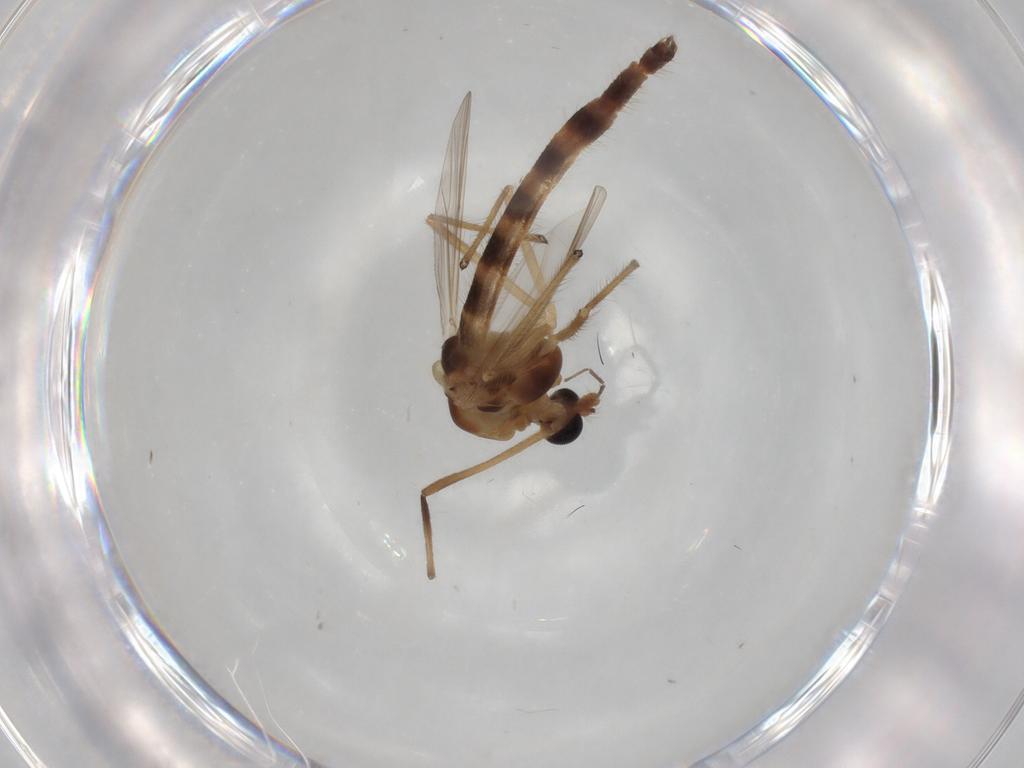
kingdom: Animalia
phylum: Arthropoda
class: Insecta
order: Diptera
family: Chironomidae
